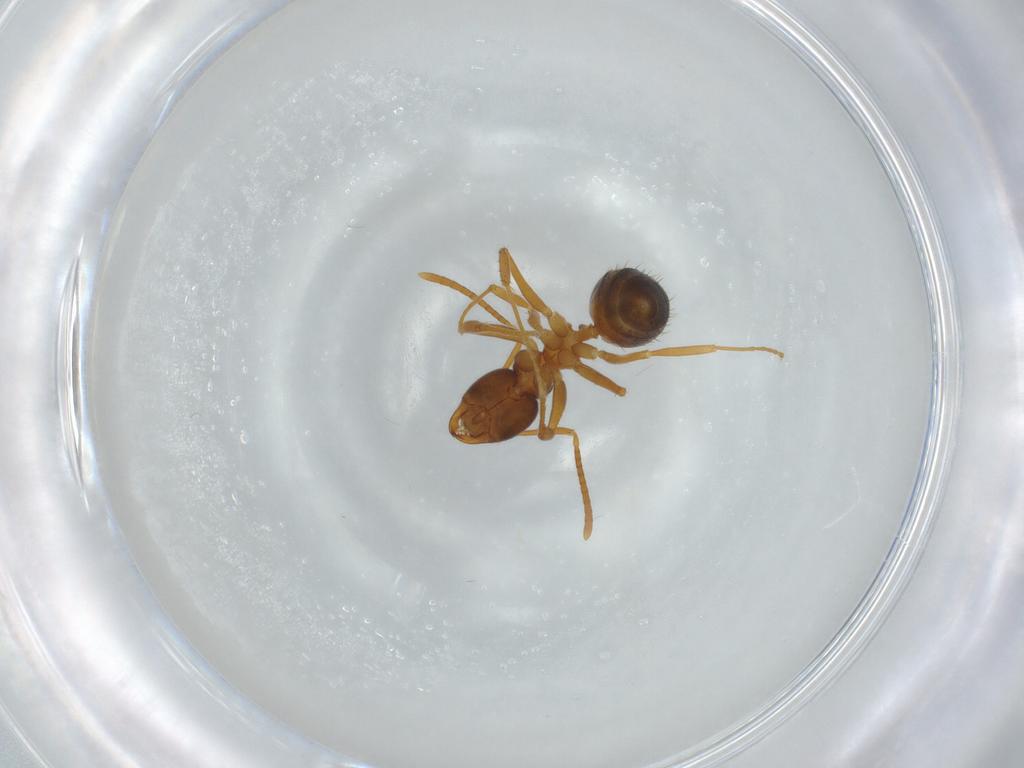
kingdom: Animalia
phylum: Arthropoda
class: Insecta
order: Hymenoptera
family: Formicidae
